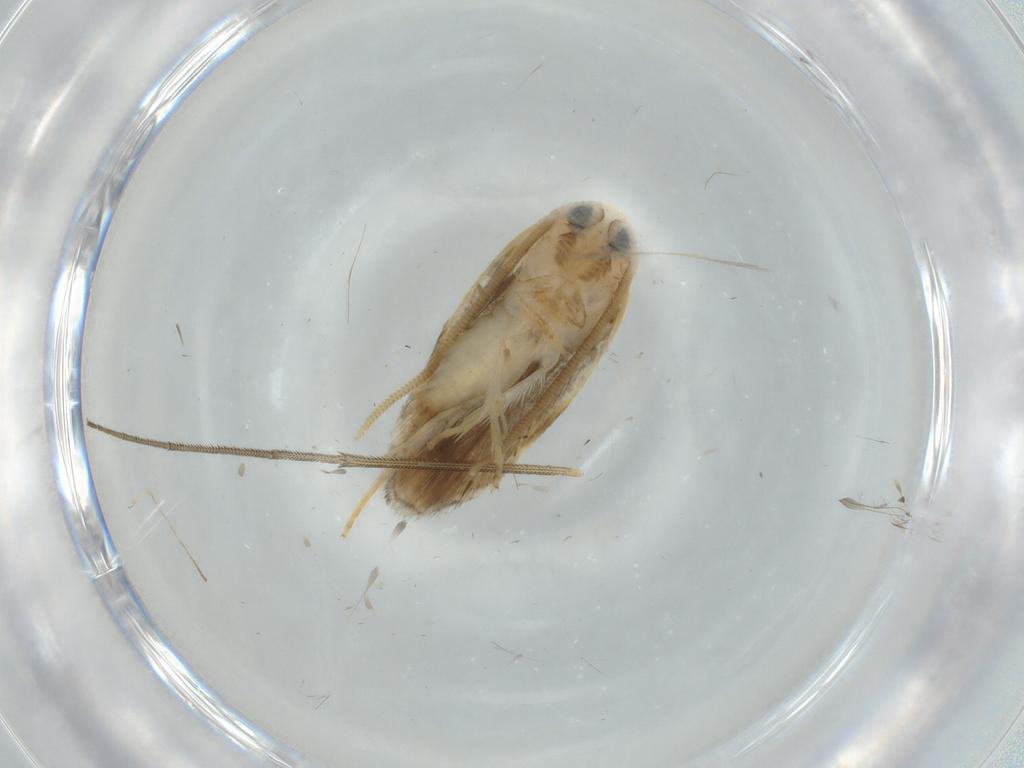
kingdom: Animalia
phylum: Arthropoda
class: Insecta
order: Lepidoptera
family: Opostegidae
